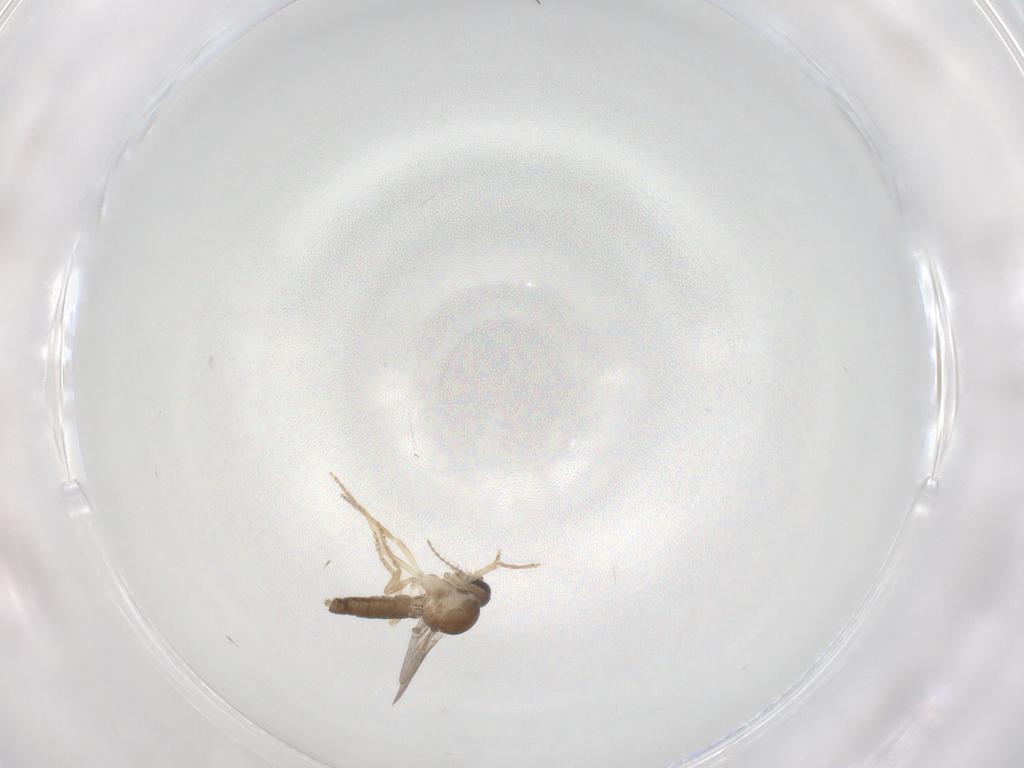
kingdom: Animalia
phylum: Arthropoda
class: Insecta
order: Diptera
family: Ceratopogonidae
